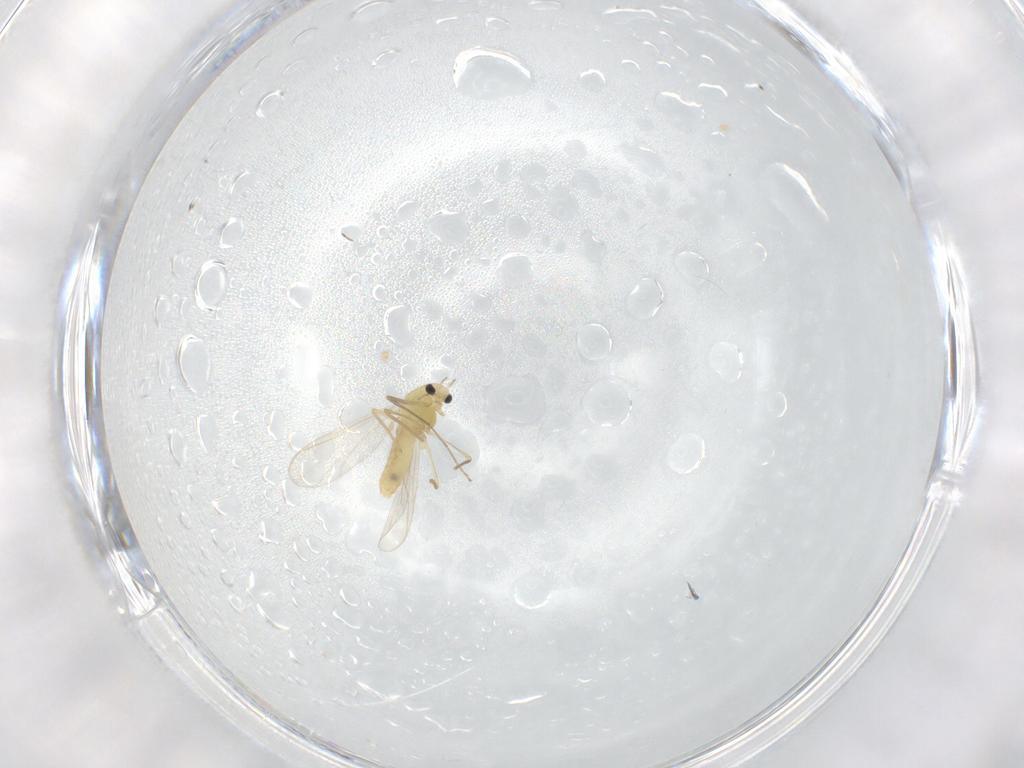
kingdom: Animalia
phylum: Arthropoda
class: Insecta
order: Diptera
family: Chironomidae
